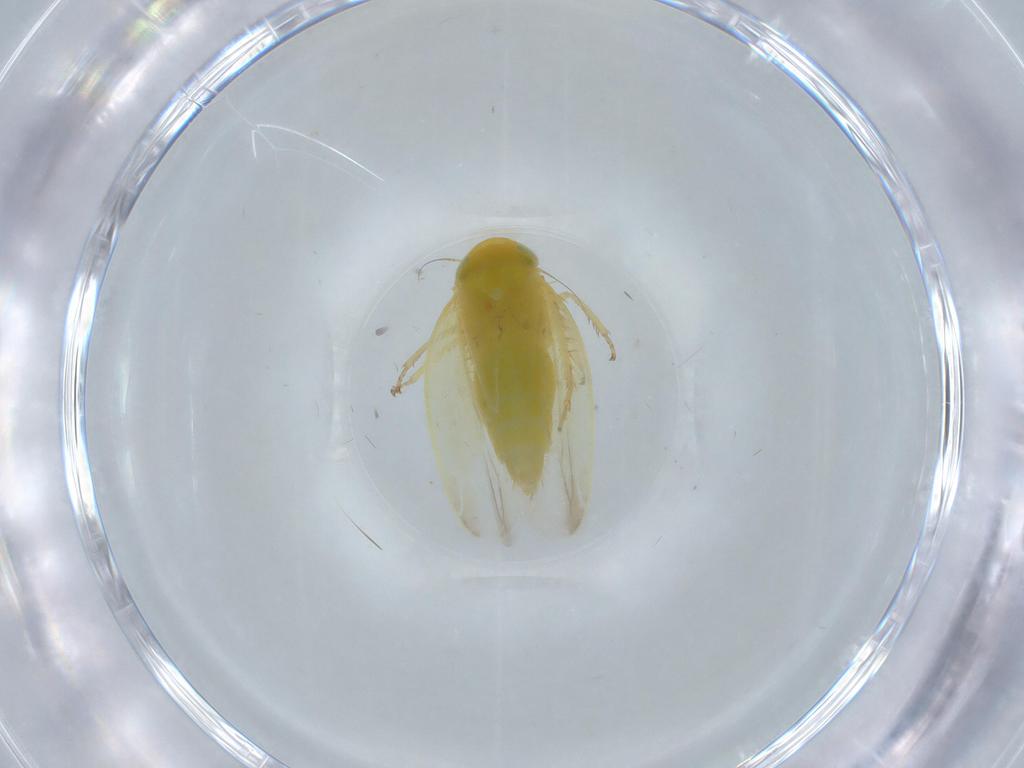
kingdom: Animalia
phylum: Arthropoda
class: Insecta
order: Hemiptera
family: Cicadellidae
